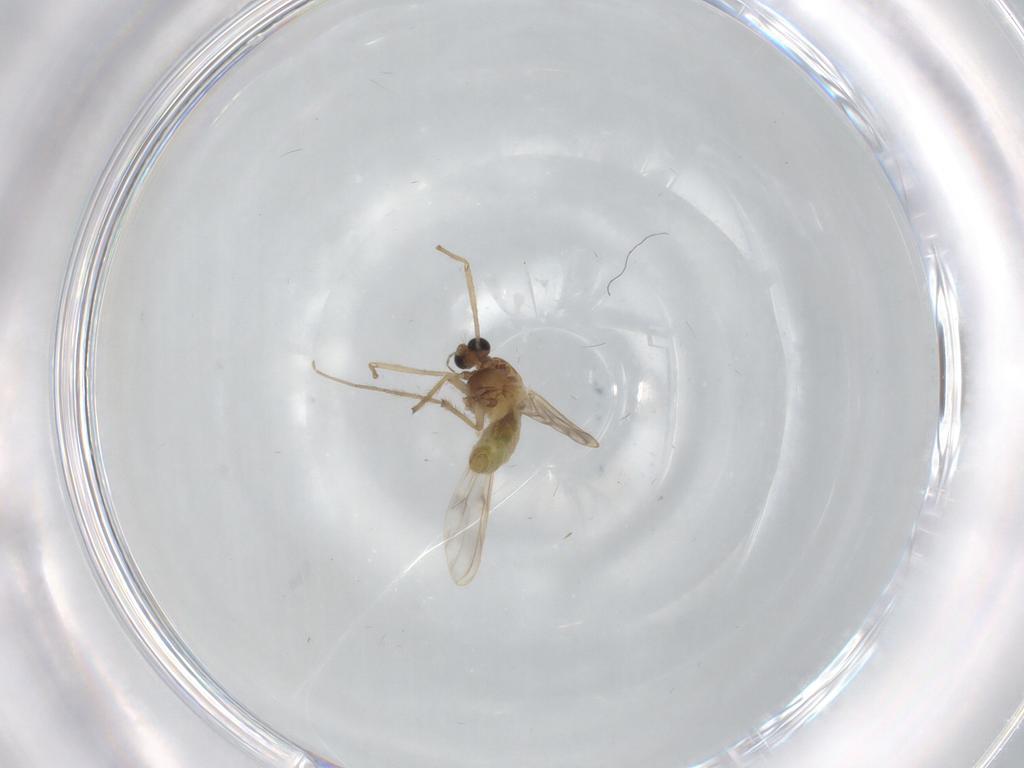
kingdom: Animalia
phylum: Arthropoda
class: Insecta
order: Diptera
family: Chironomidae
